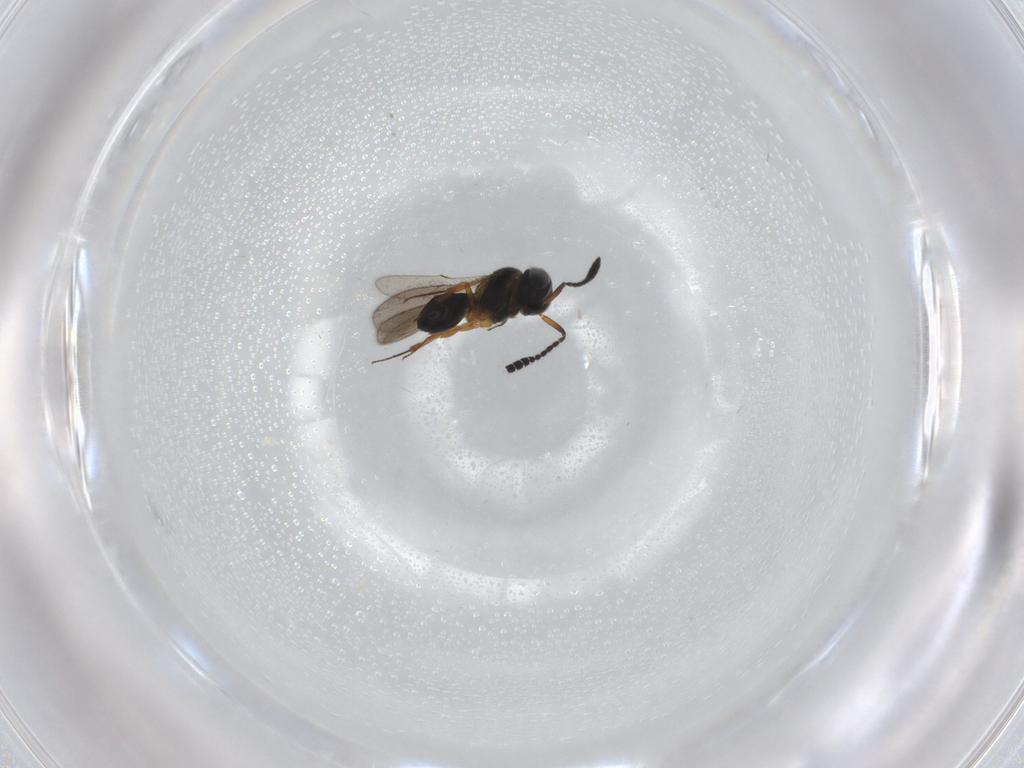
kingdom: Animalia
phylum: Arthropoda
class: Insecta
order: Hymenoptera
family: Scelionidae
